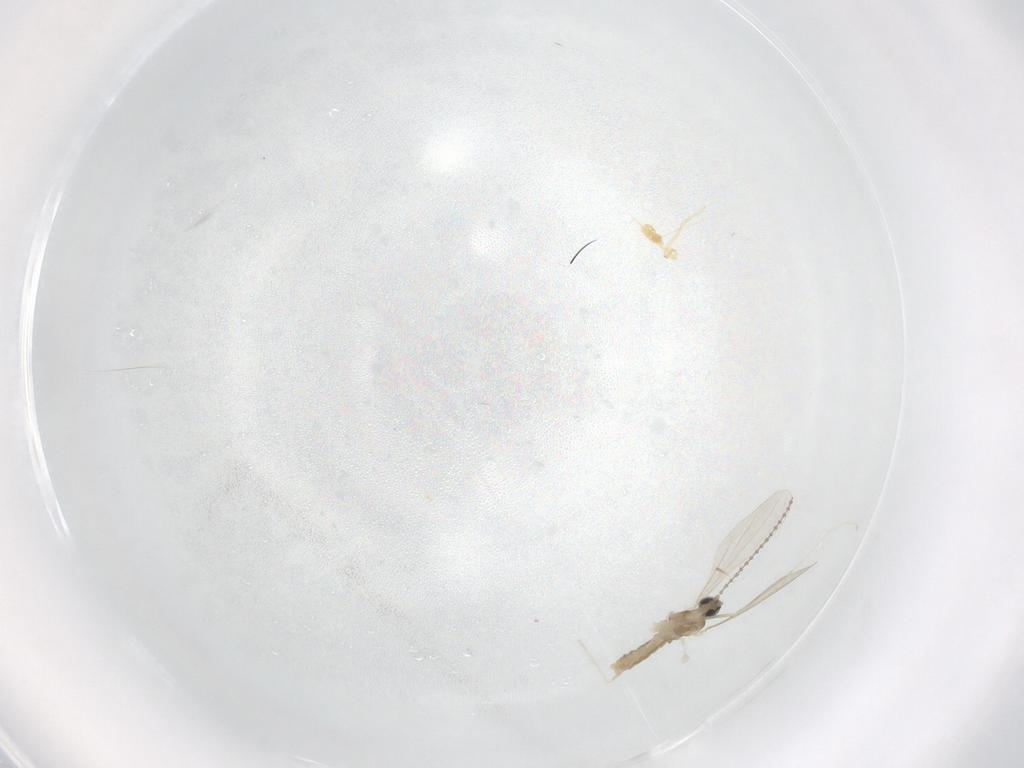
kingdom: Animalia
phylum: Arthropoda
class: Insecta
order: Diptera
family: Cecidomyiidae
